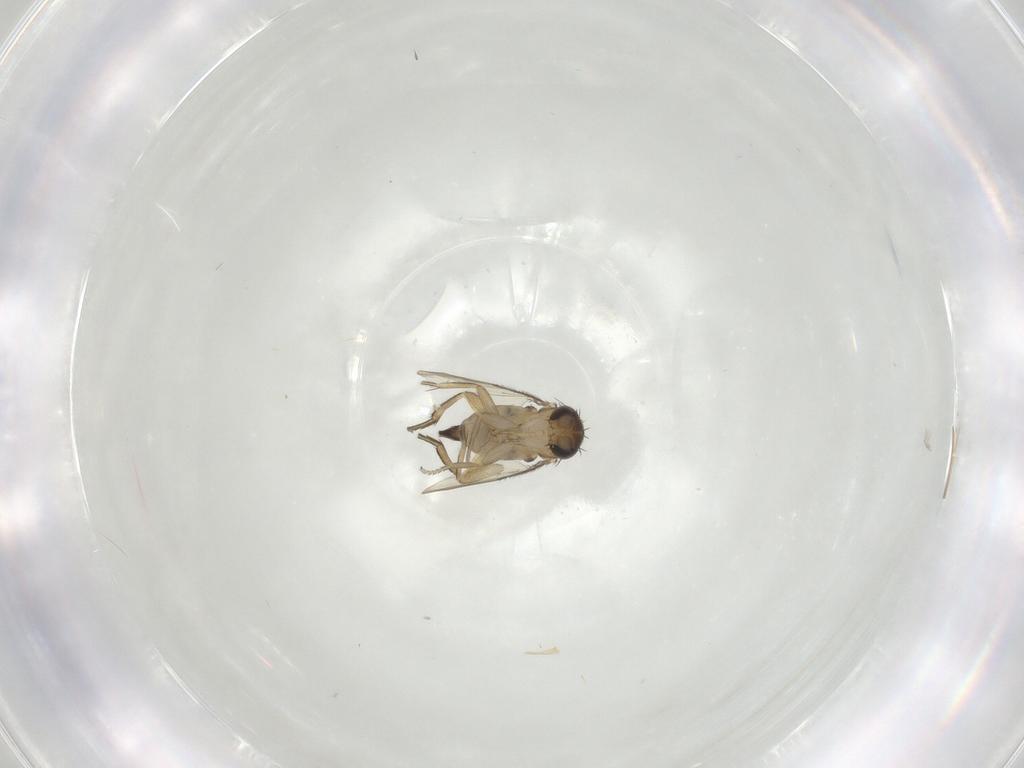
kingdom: Animalia
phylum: Arthropoda
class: Insecta
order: Diptera
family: Phoridae
